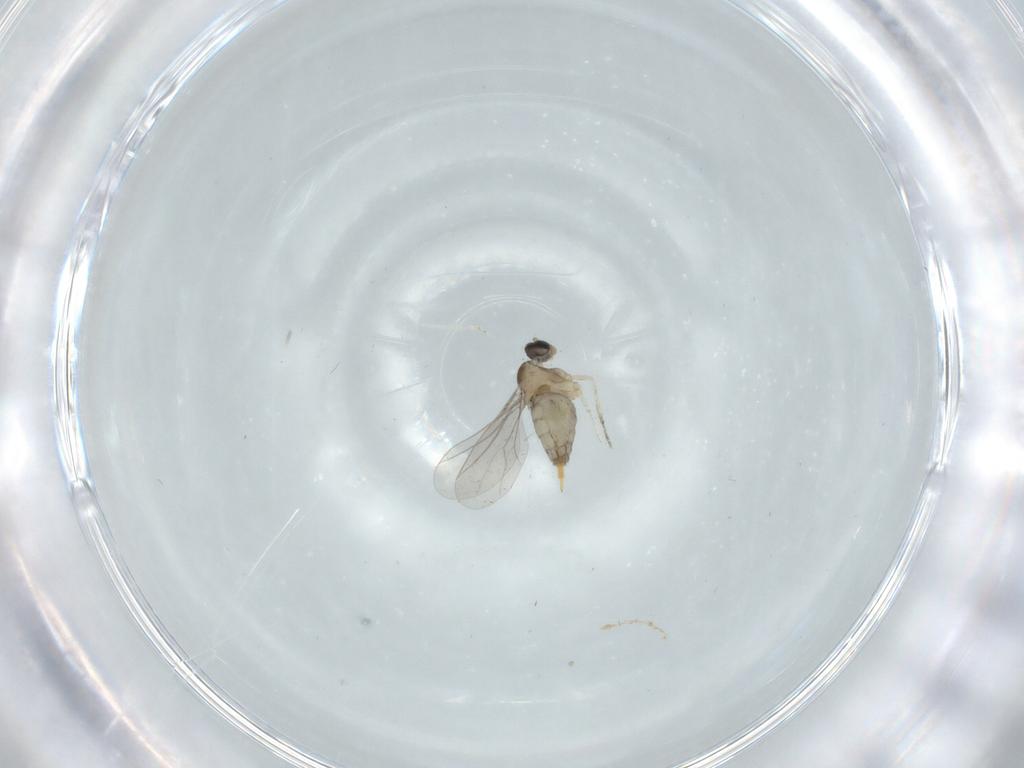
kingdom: Animalia
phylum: Arthropoda
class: Insecta
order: Diptera
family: Cecidomyiidae
